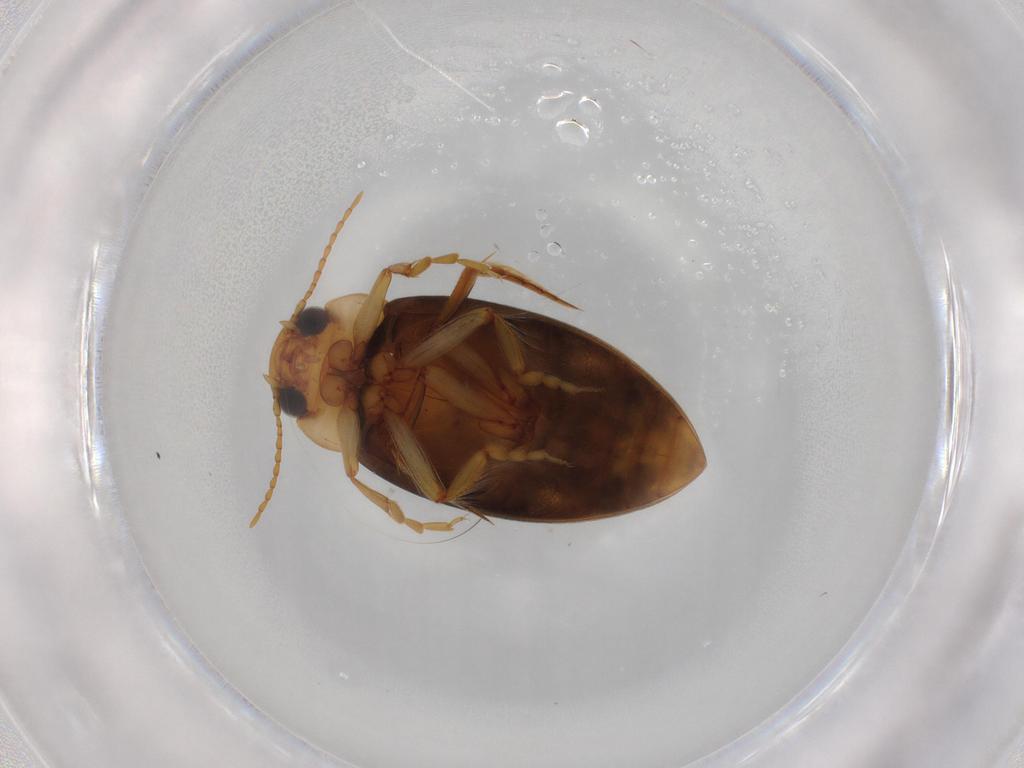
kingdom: Animalia
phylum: Arthropoda
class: Insecta
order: Coleoptera
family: Dytiscidae
